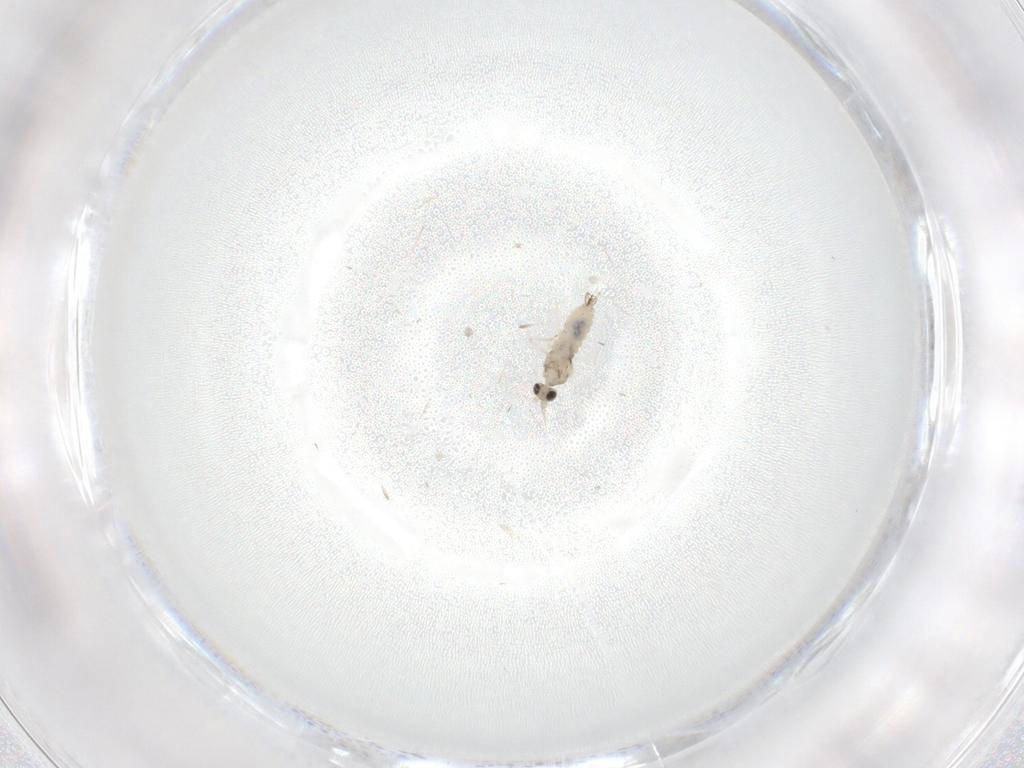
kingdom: Animalia
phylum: Arthropoda
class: Insecta
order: Diptera
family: Cecidomyiidae
